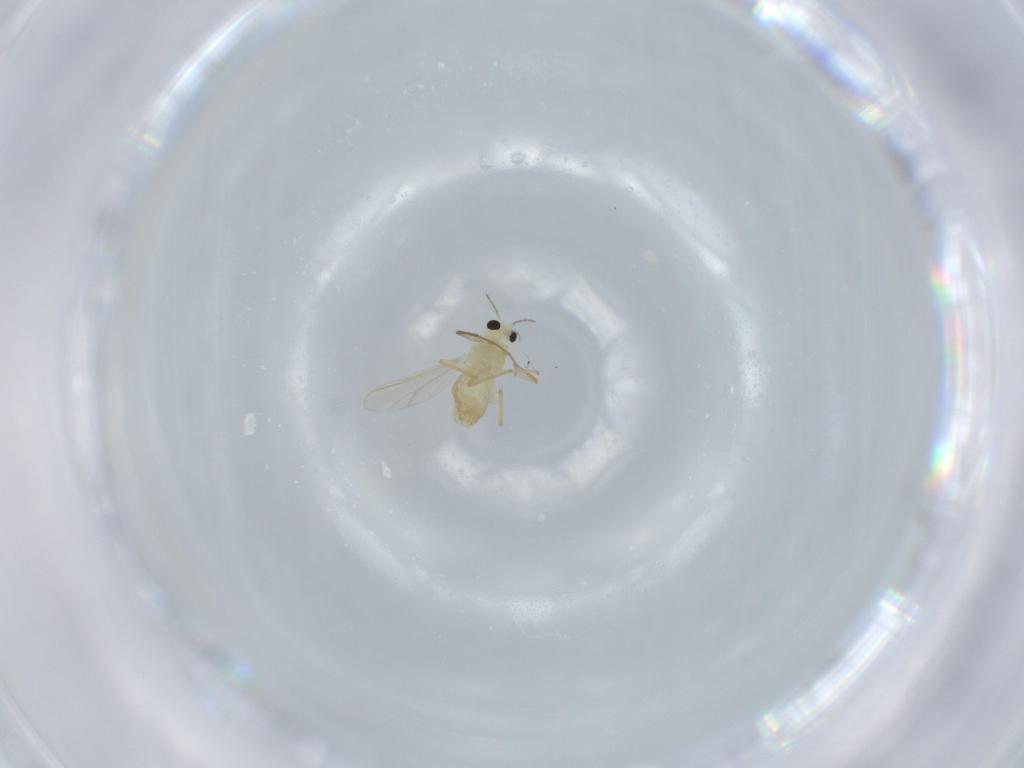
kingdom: Animalia
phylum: Arthropoda
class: Insecta
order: Diptera
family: Chironomidae
